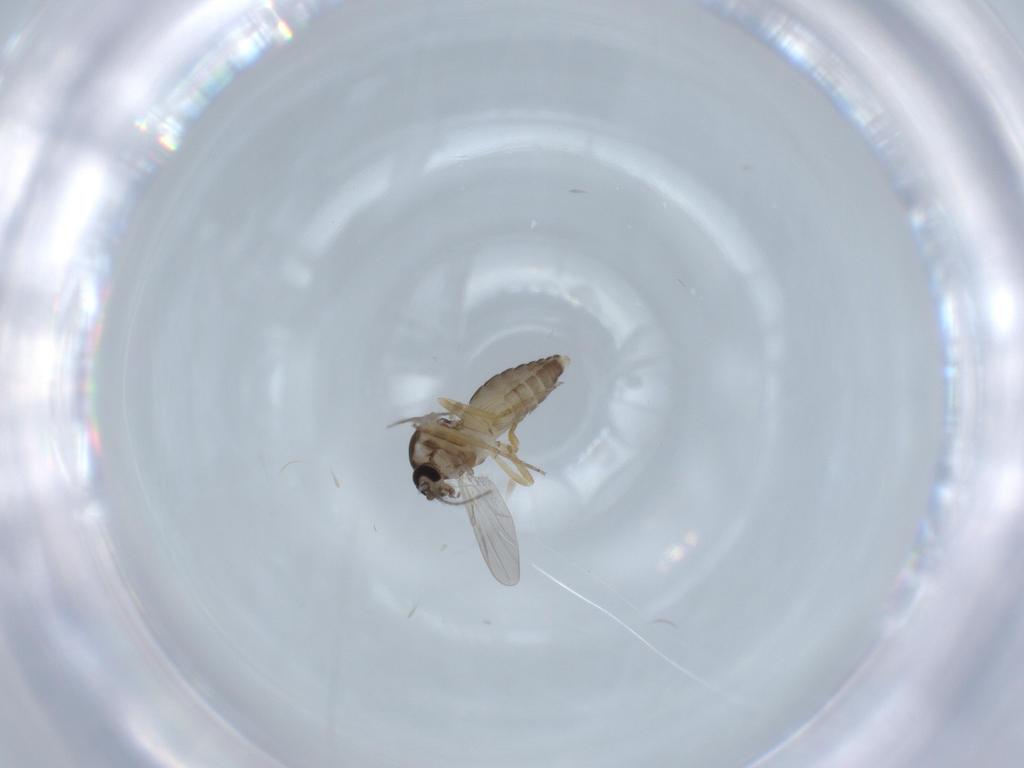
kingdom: Animalia
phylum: Arthropoda
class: Insecta
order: Diptera
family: Ceratopogonidae
